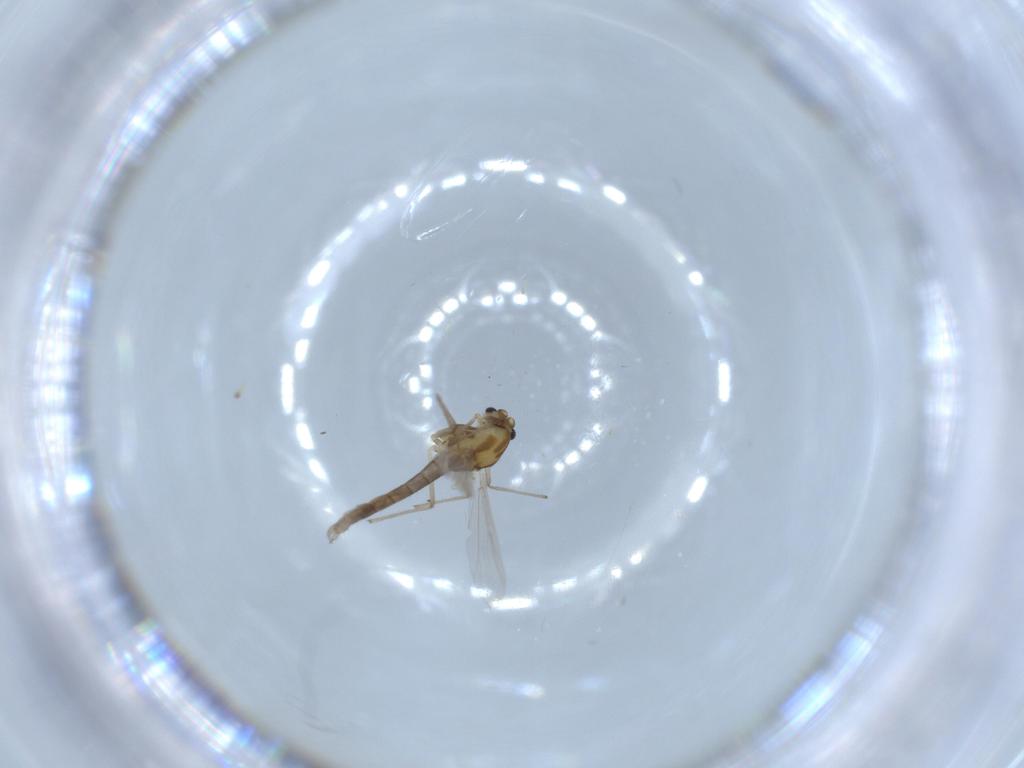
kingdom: Animalia
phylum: Arthropoda
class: Insecta
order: Diptera
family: Chironomidae
